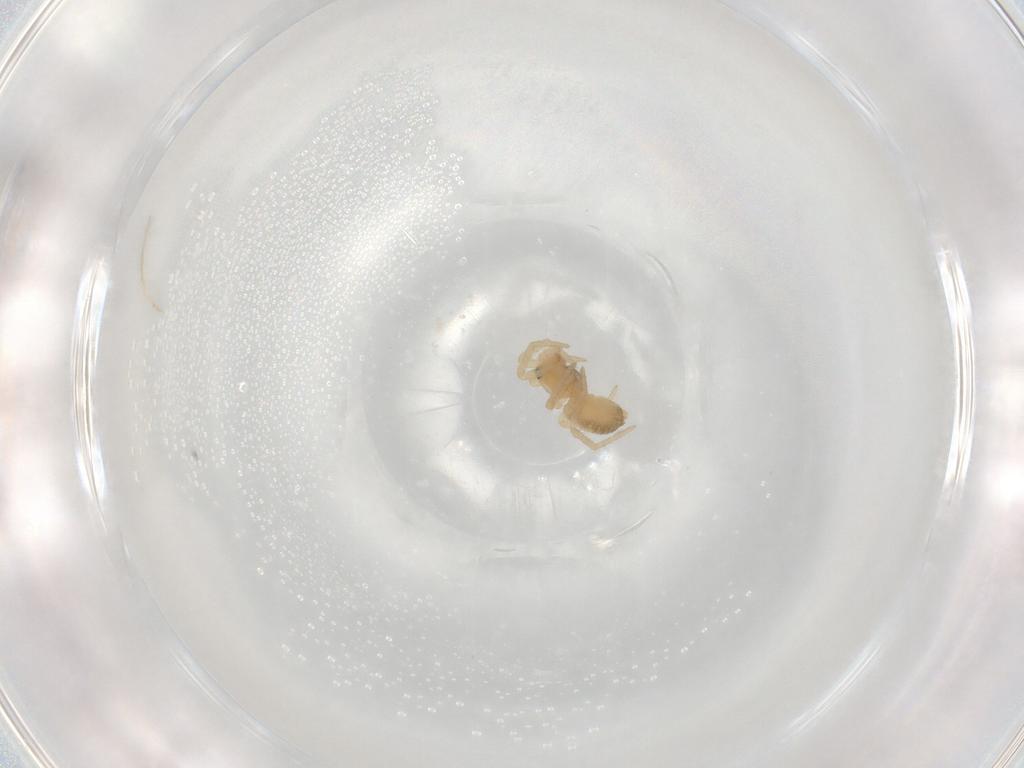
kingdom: Animalia
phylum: Arthropoda
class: Arachnida
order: Araneae
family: Linyphiidae
